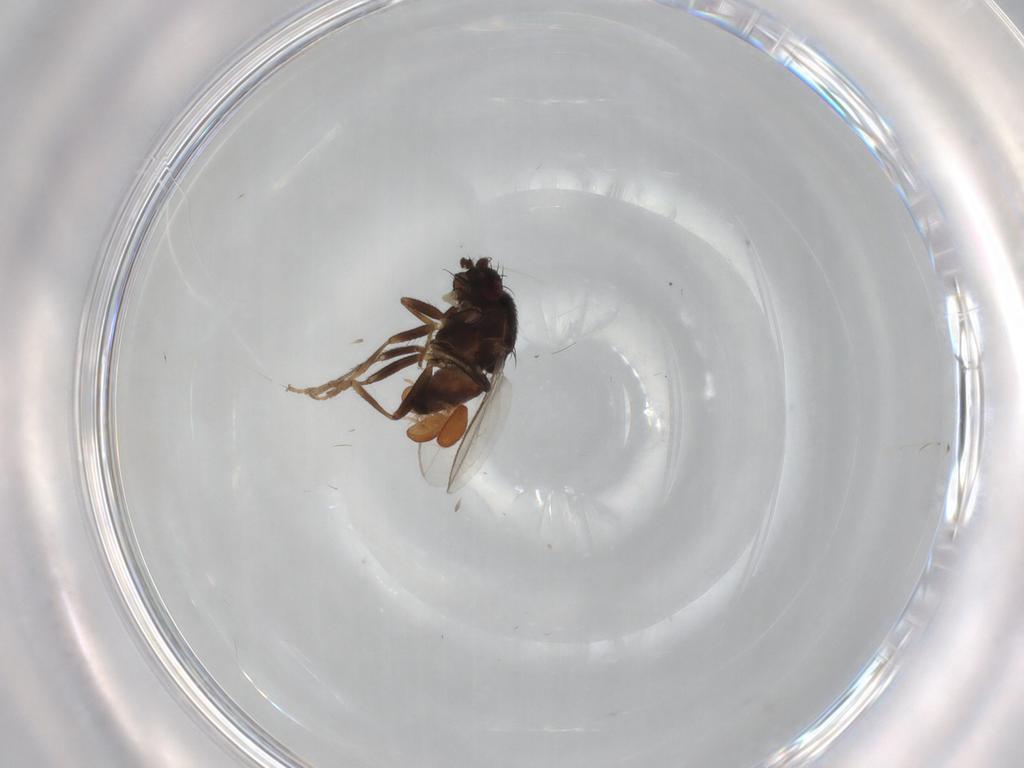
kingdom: Animalia
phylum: Arthropoda
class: Insecta
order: Diptera
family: Sphaeroceridae
